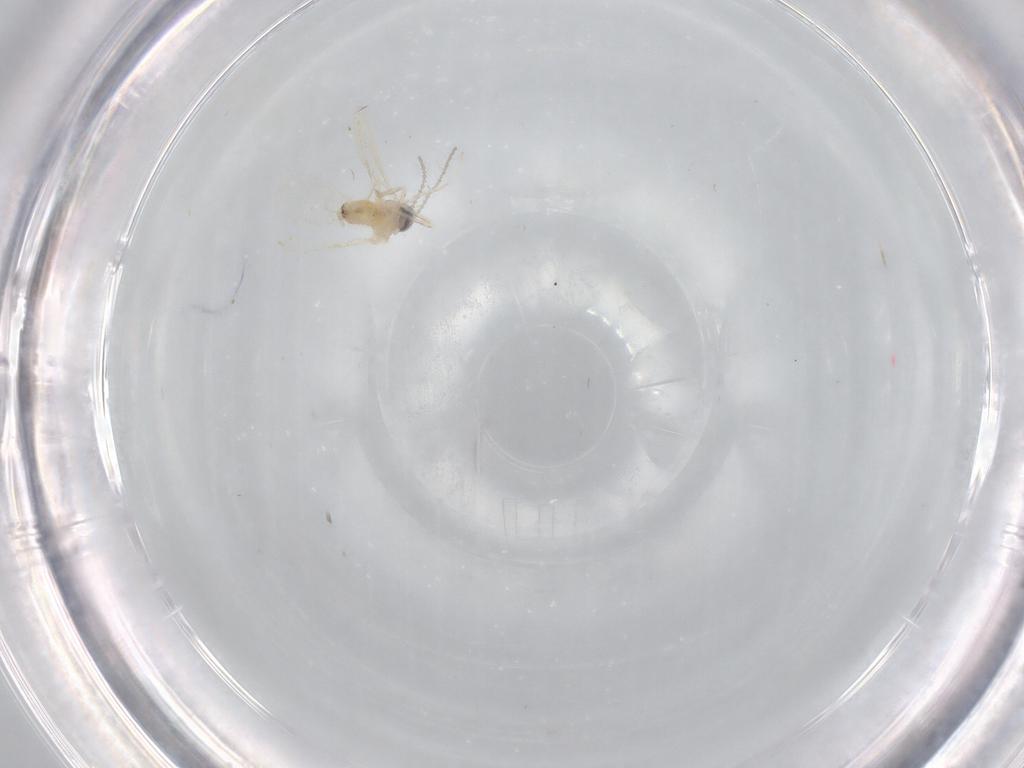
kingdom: Animalia
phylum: Arthropoda
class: Insecta
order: Diptera
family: Cecidomyiidae
